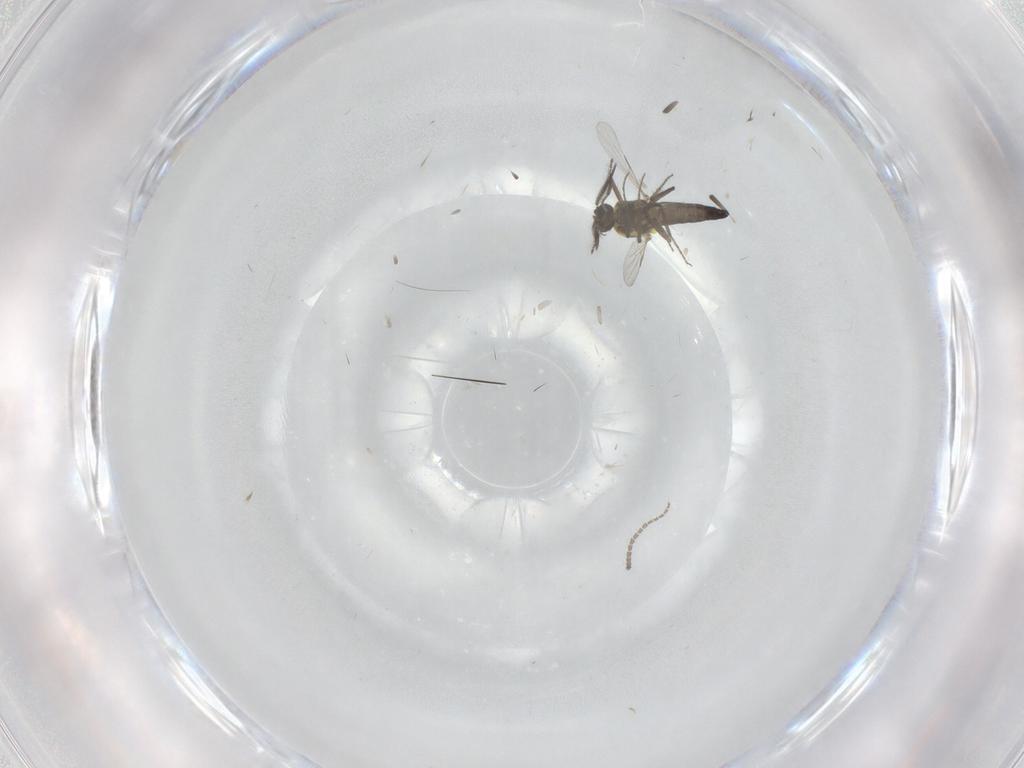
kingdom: Animalia
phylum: Arthropoda
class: Insecta
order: Diptera
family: Sciaridae
